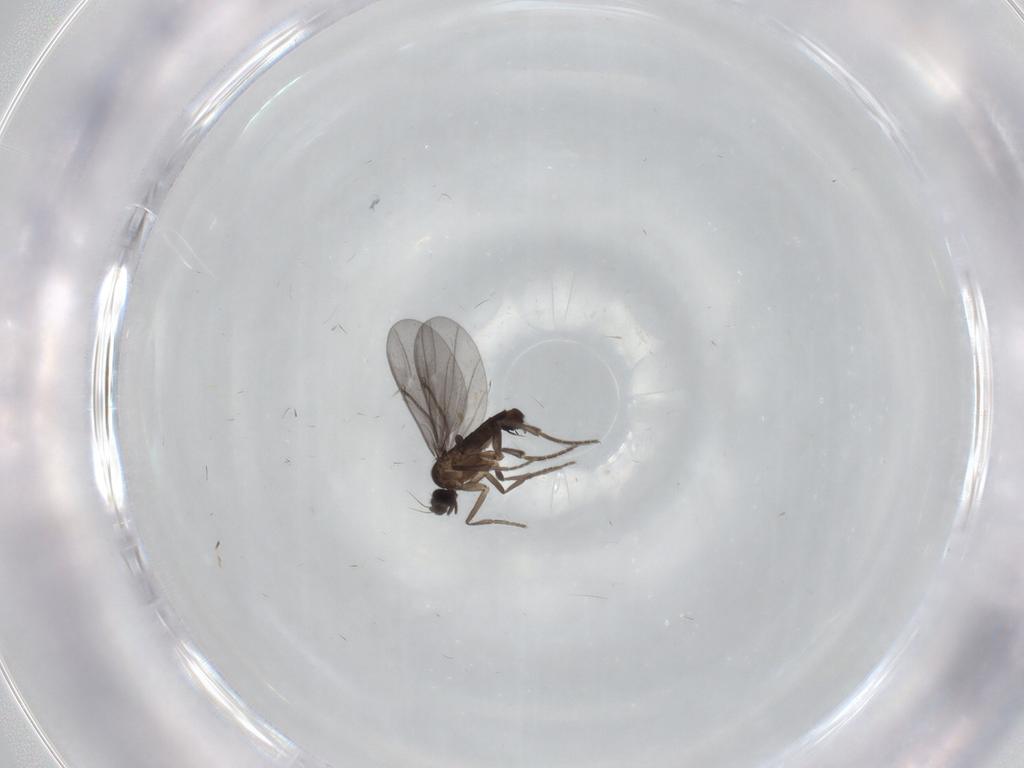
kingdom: Animalia
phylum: Arthropoda
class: Insecta
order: Diptera
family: Phoridae
